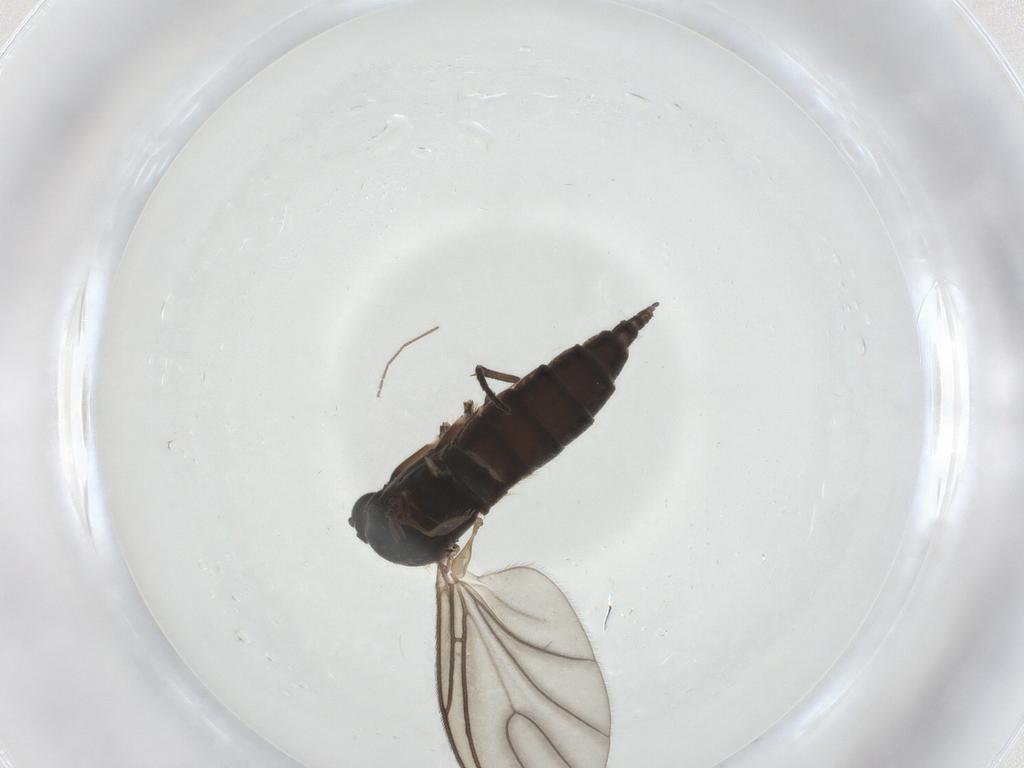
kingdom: Animalia
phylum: Arthropoda
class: Insecta
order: Diptera
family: Sciaridae
